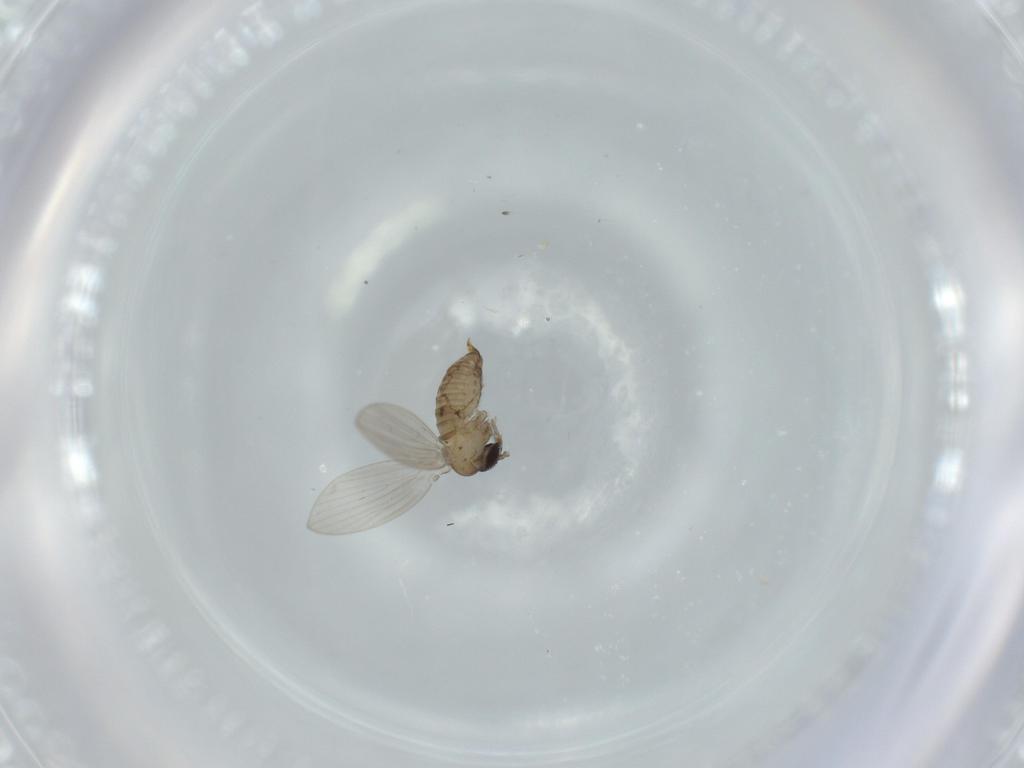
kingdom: Animalia
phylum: Arthropoda
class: Insecta
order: Diptera
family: Psychodidae
